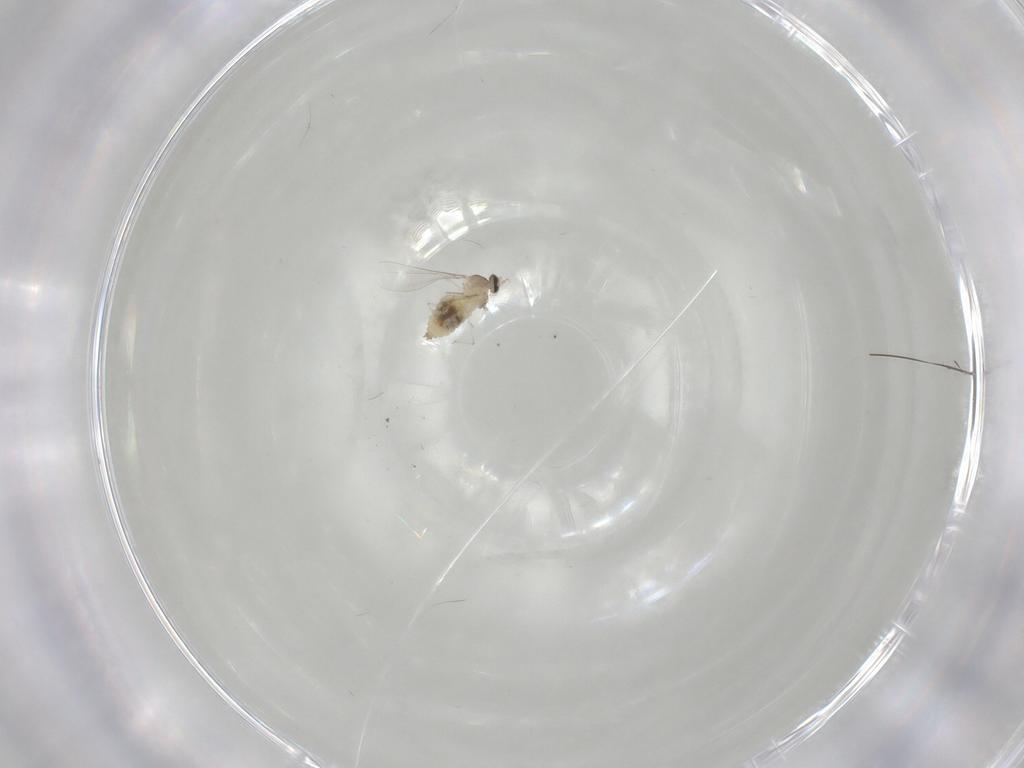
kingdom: Animalia
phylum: Arthropoda
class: Insecta
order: Diptera
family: Cecidomyiidae
